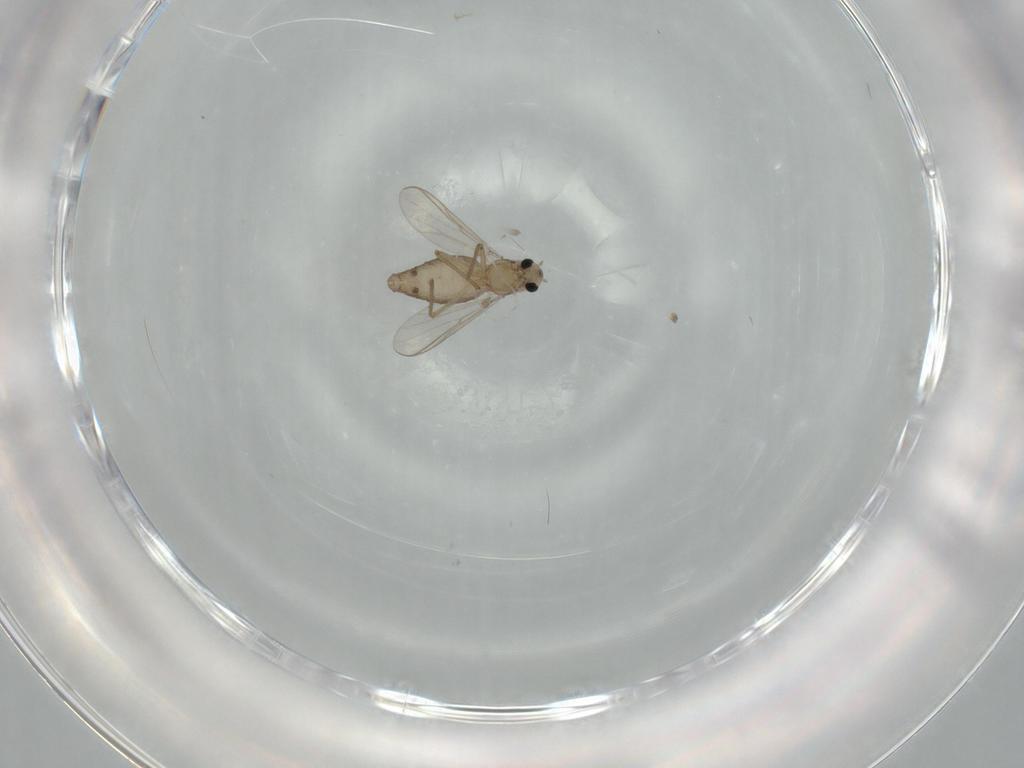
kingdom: Animalia
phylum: Arthropoda
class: Insecta
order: Diptera
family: Chironomidae
